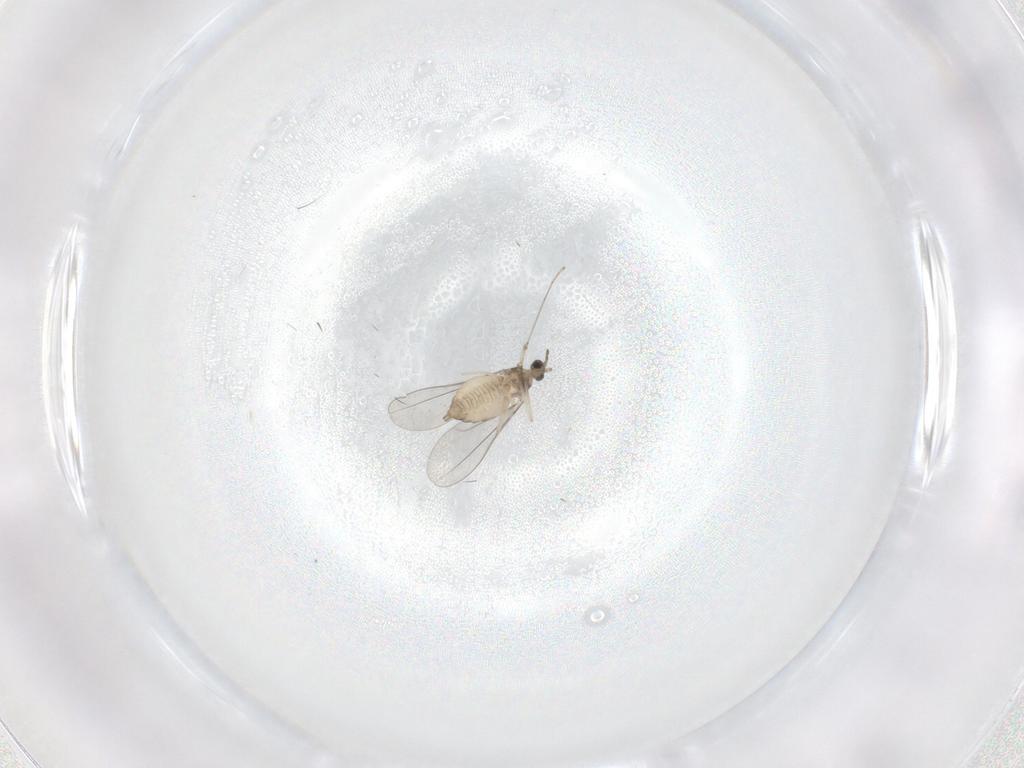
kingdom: Animalia
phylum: Arthropoda
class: Insecta
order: Diptera
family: Cecidomyiidae
